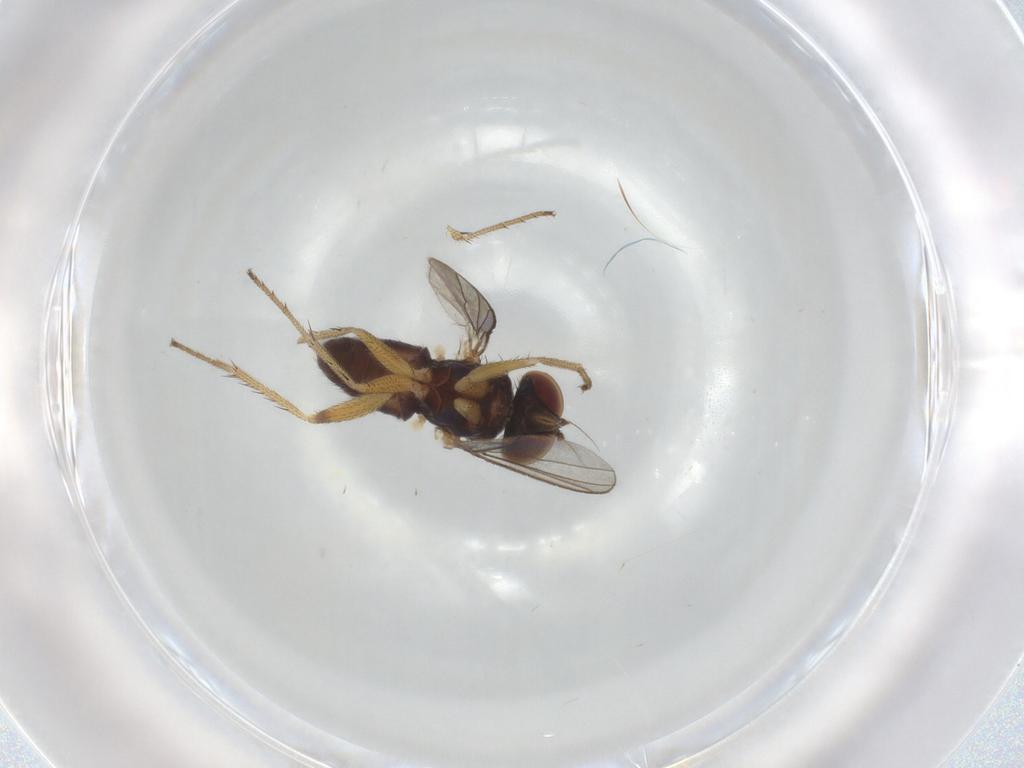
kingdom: Animalia
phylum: Arthropoda
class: Insecta
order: Diptera
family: Ceratopogonidae
